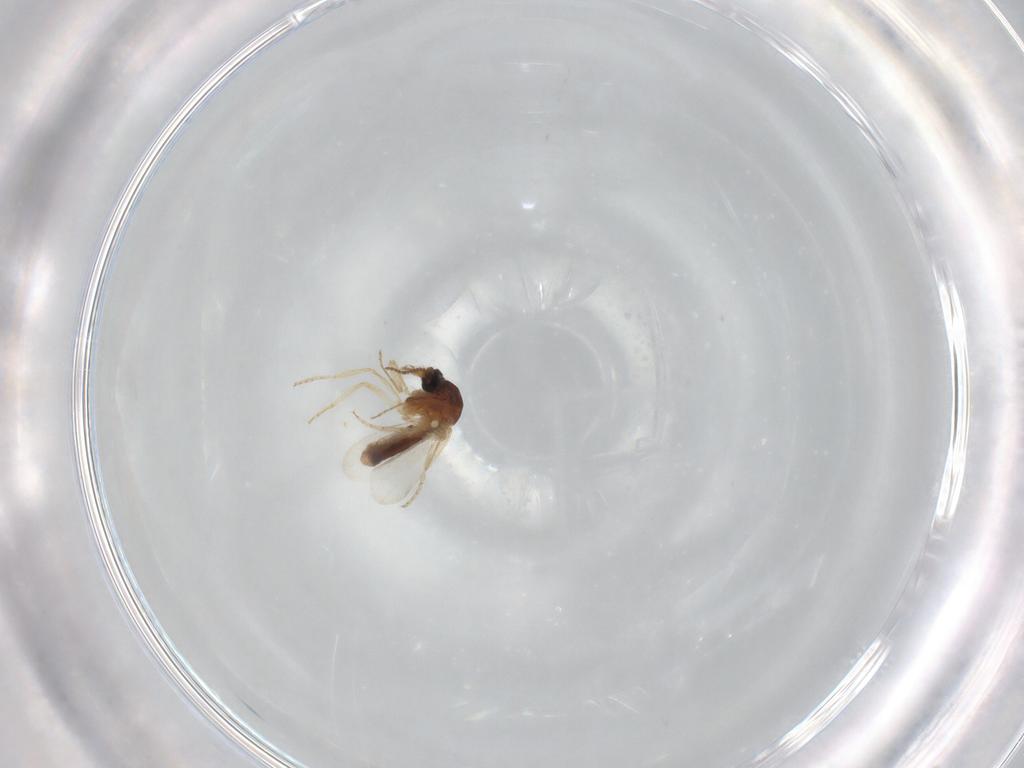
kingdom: Animalia
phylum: Arthropoda
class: Insecta
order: Diptera
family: Ceratopogonidae
